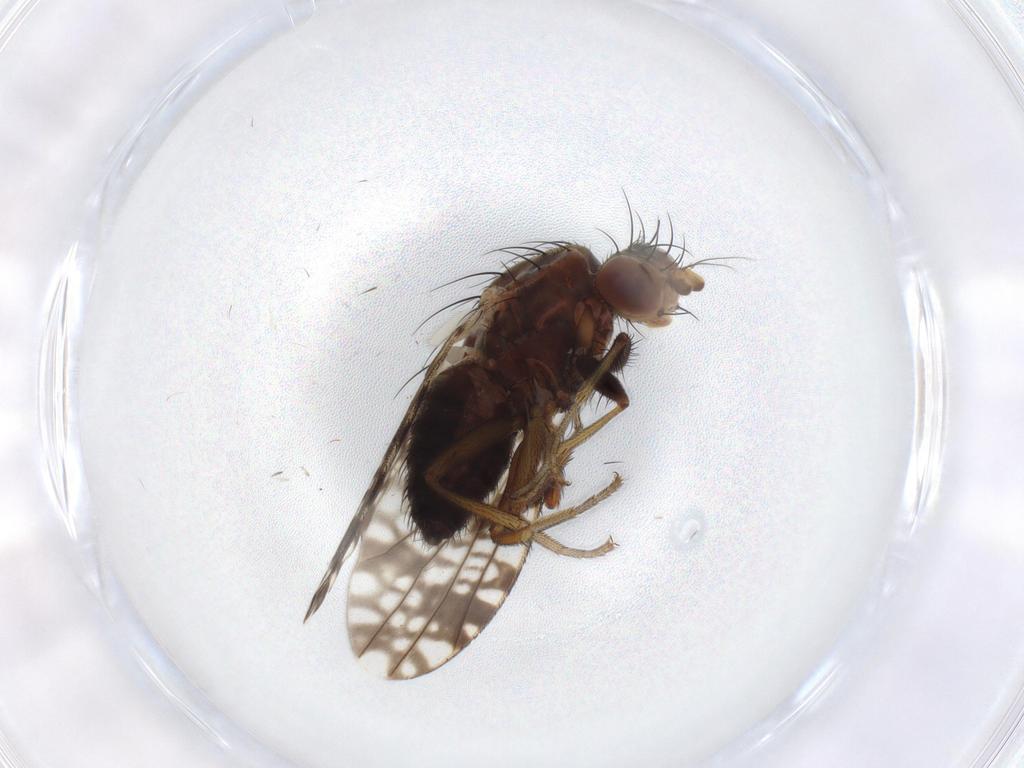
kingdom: Animalia
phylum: Arthropoda
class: Insecta
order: Diptera
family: Tephritidae
